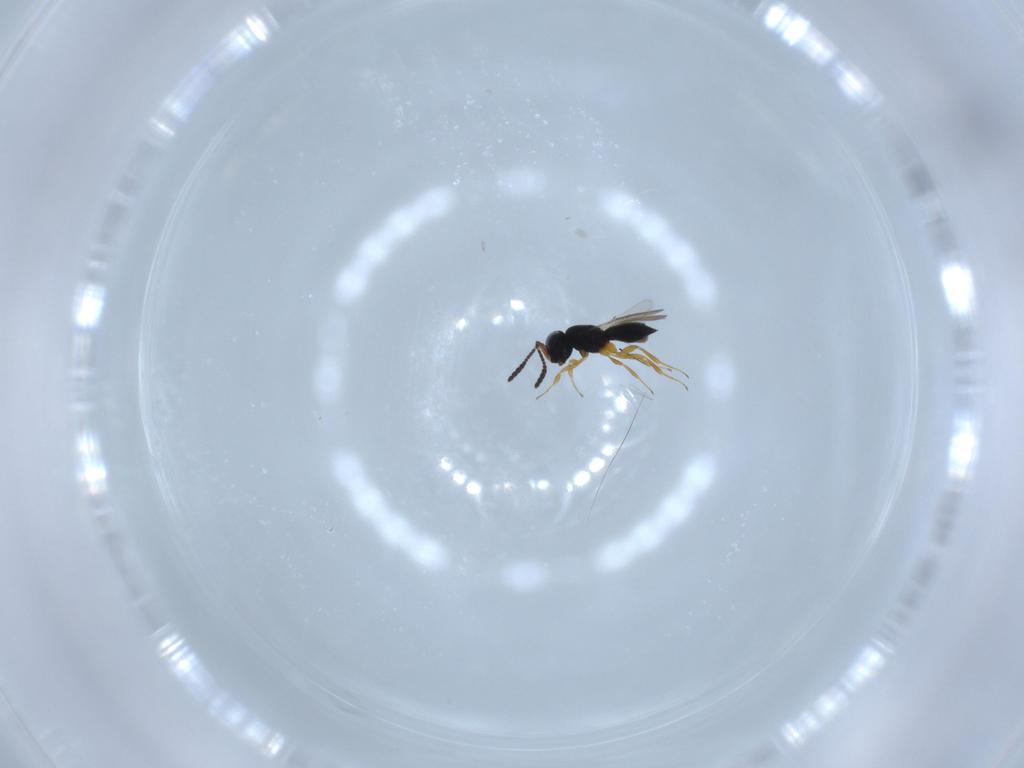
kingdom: Animalia
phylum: Arthropoda
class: Insecta
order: Hymenoptera
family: Scelionidae
